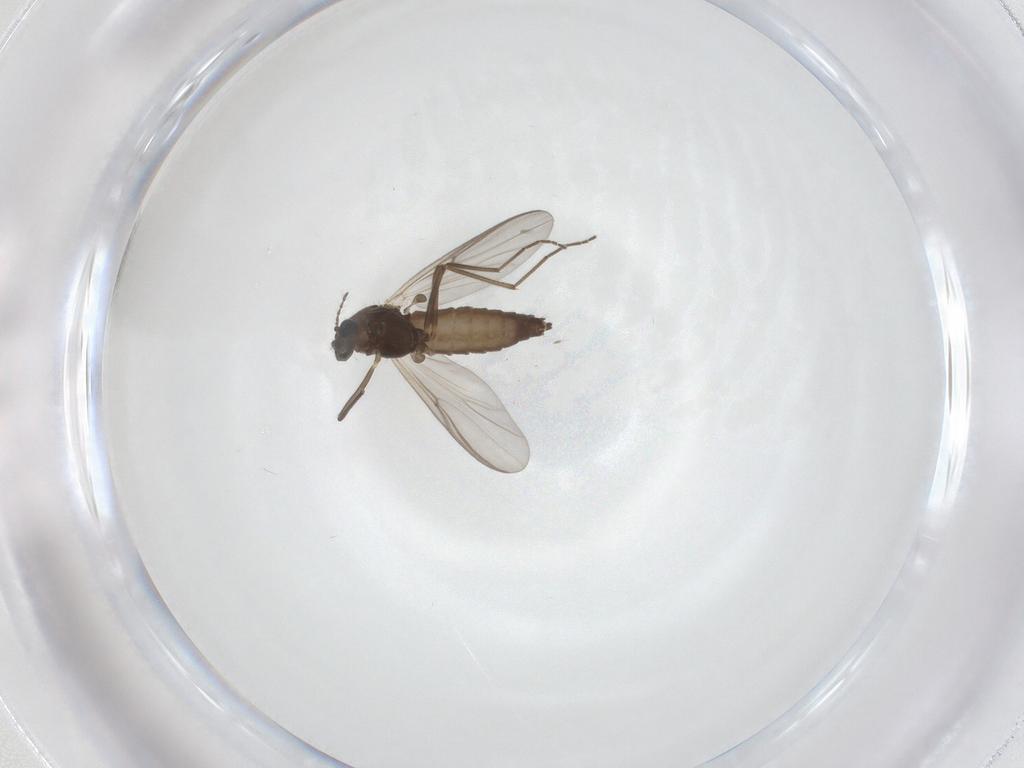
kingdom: Animalia
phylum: Arthropoda
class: Insecta
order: Diptera
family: Chironomidae
